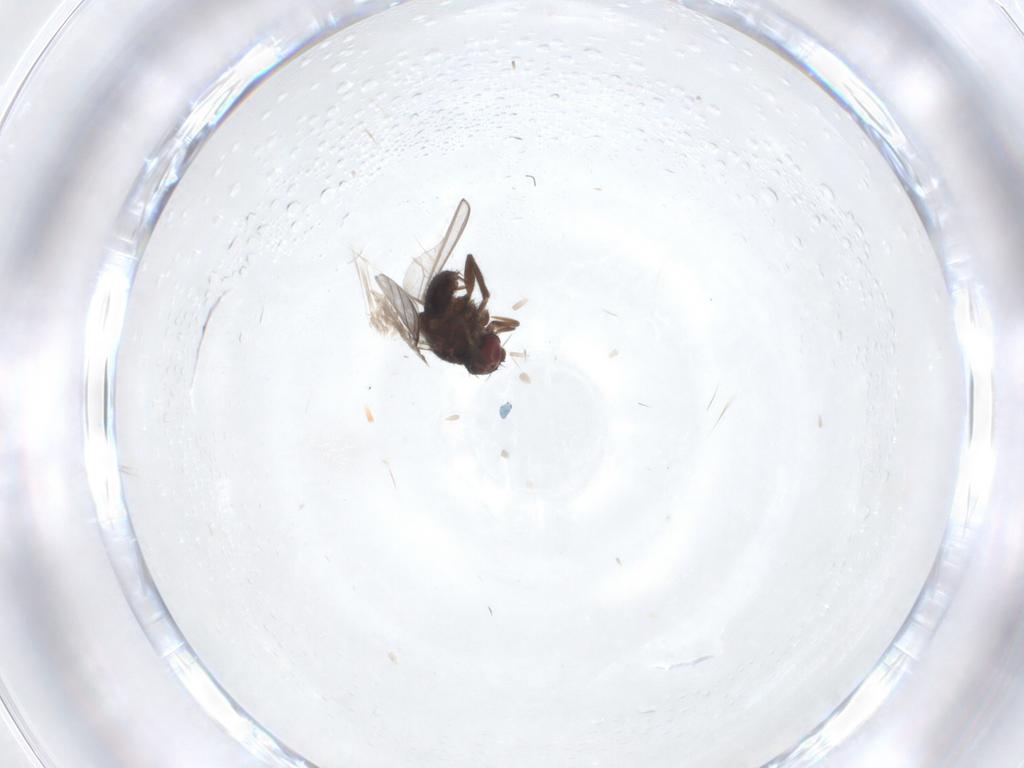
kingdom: Animalia
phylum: Arthropoda
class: Insecta
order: Diptera
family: Milichiidae
